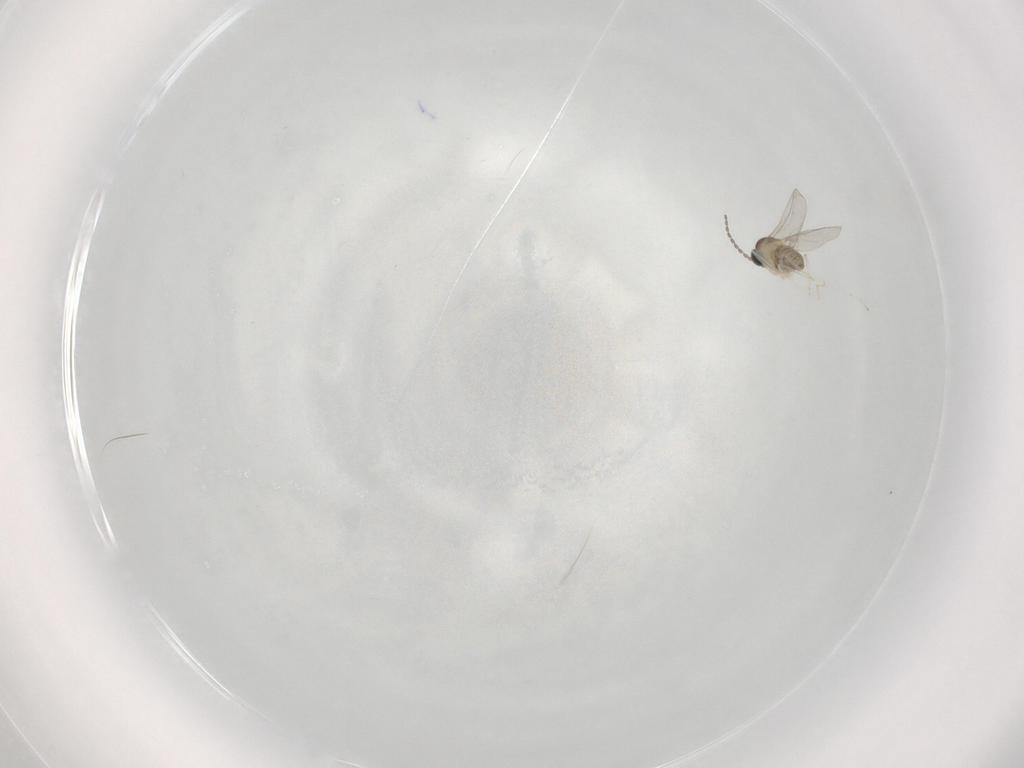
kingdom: Animalia
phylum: Arthropoda
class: Insecta
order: Diptera
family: Cecidomyiidae
